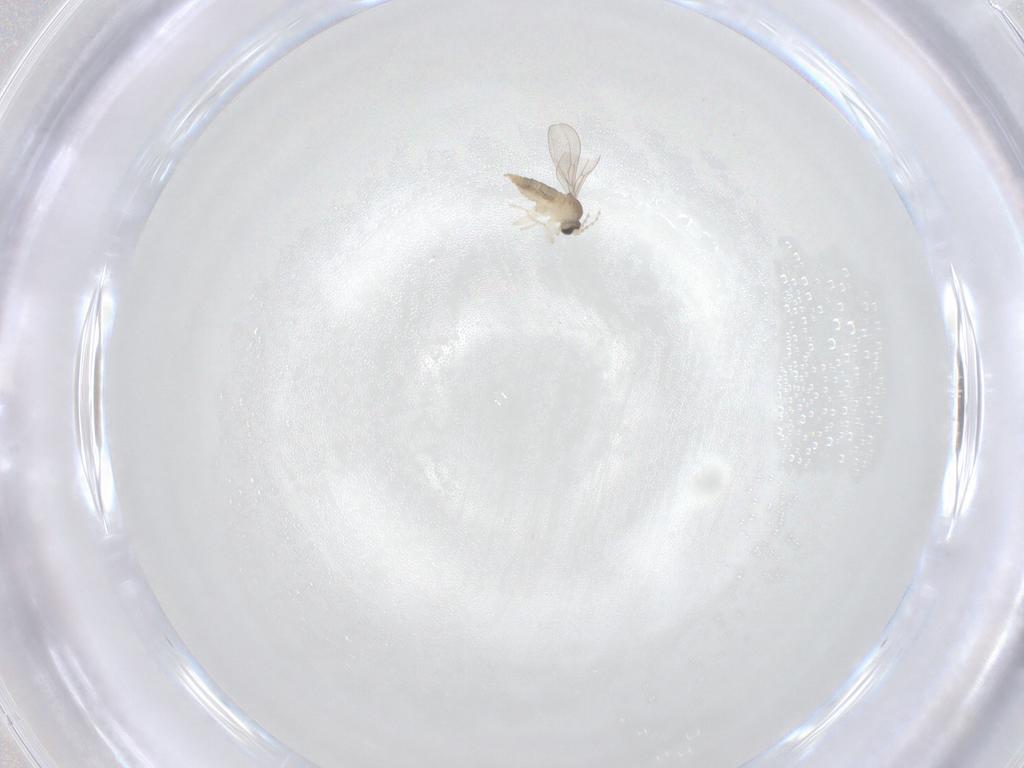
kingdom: Animalia
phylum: Arthropoda
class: Insecta
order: Diptera
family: Cecidomyiidae
